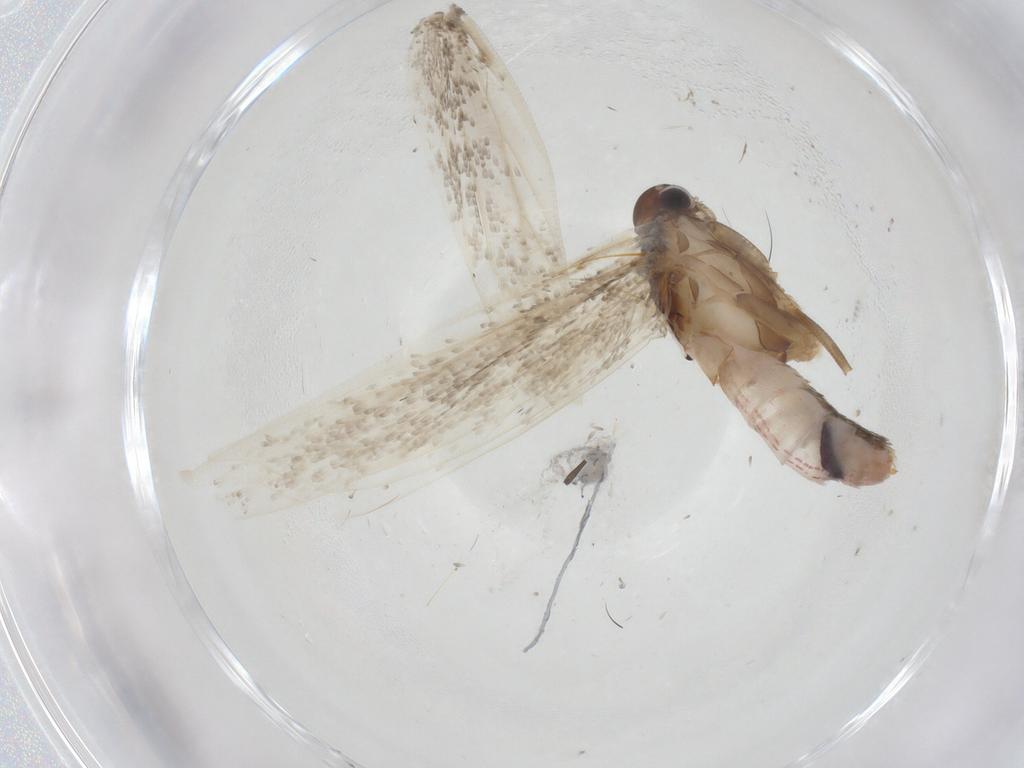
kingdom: Animalia
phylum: Arthropoda
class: Insecta
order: Lepidoptera
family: Gelechiidae
